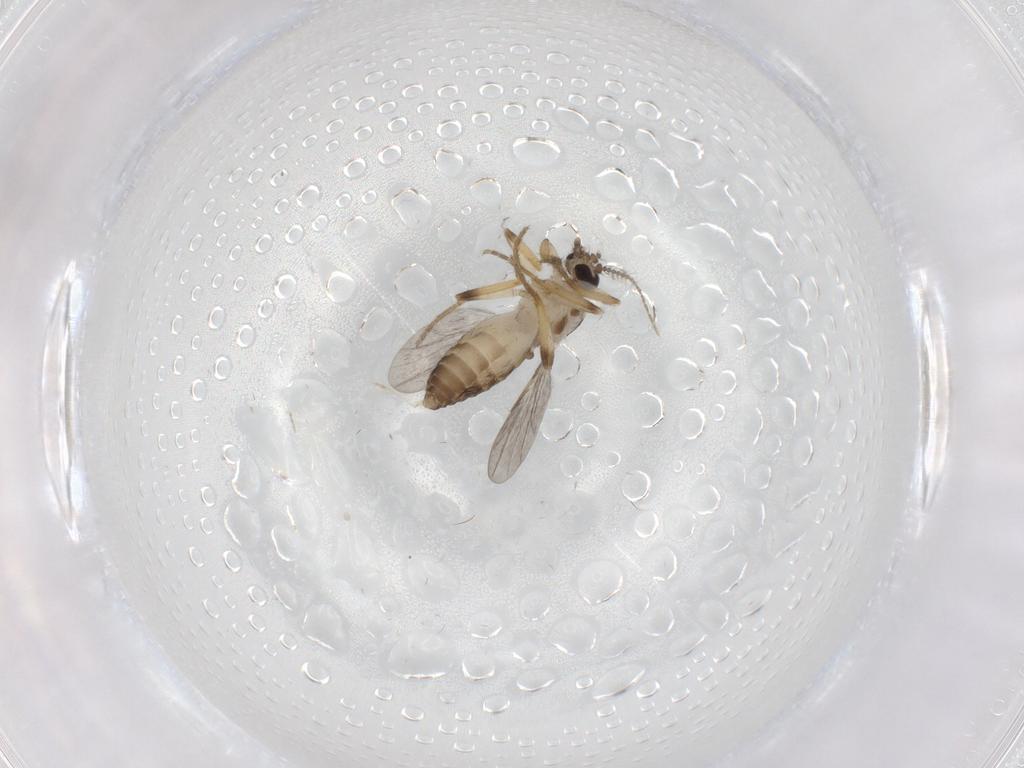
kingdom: Animalia
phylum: Arthropoda
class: Insecta
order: Diptera
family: Ceratopogonidae
